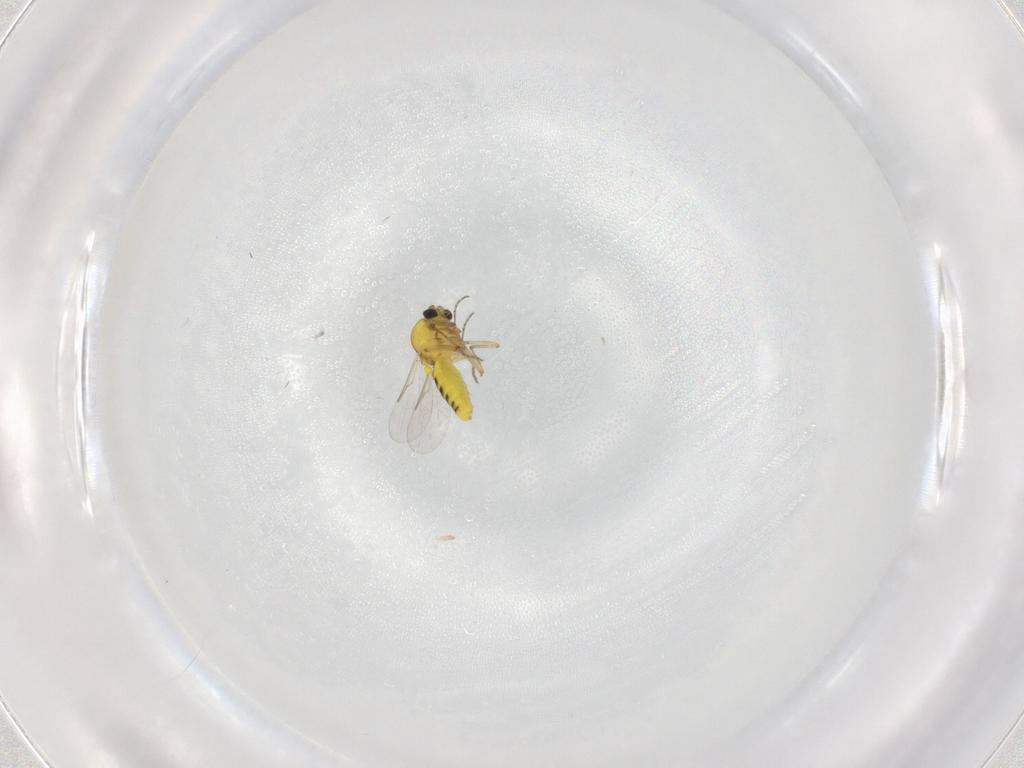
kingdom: Animalia
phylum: Arthropoda
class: Insecta
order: Diptera
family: Ceratopogonidae
